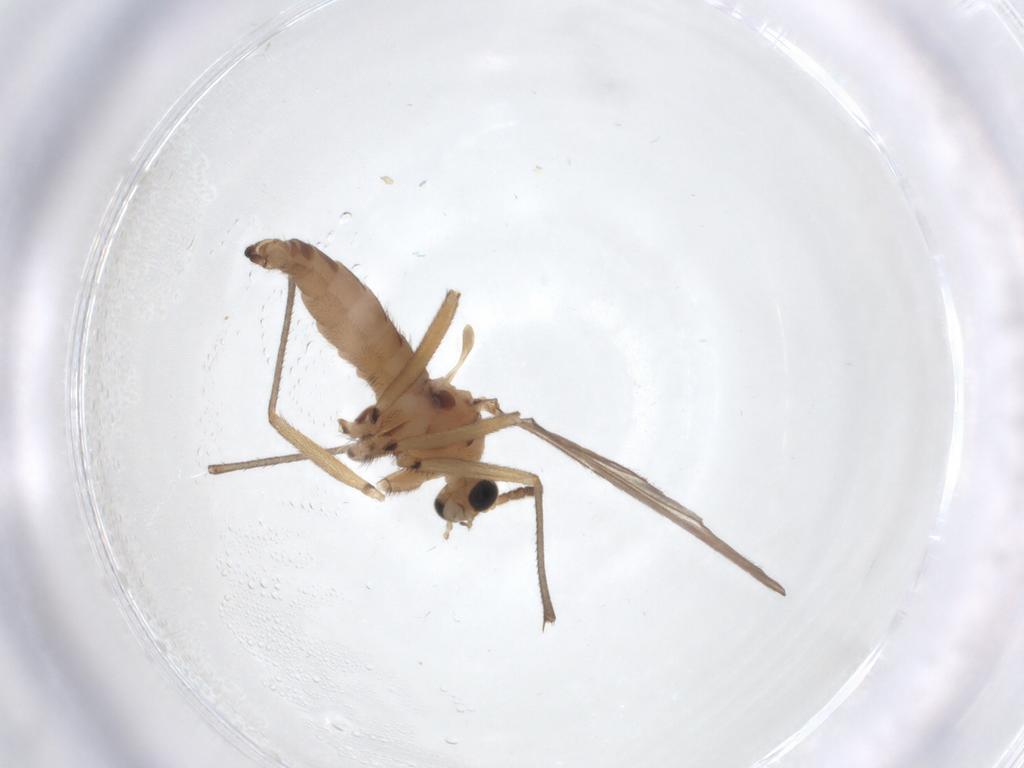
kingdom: Animalia
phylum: Arthropoda
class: Insecta
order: Diptera
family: Sciaridae
